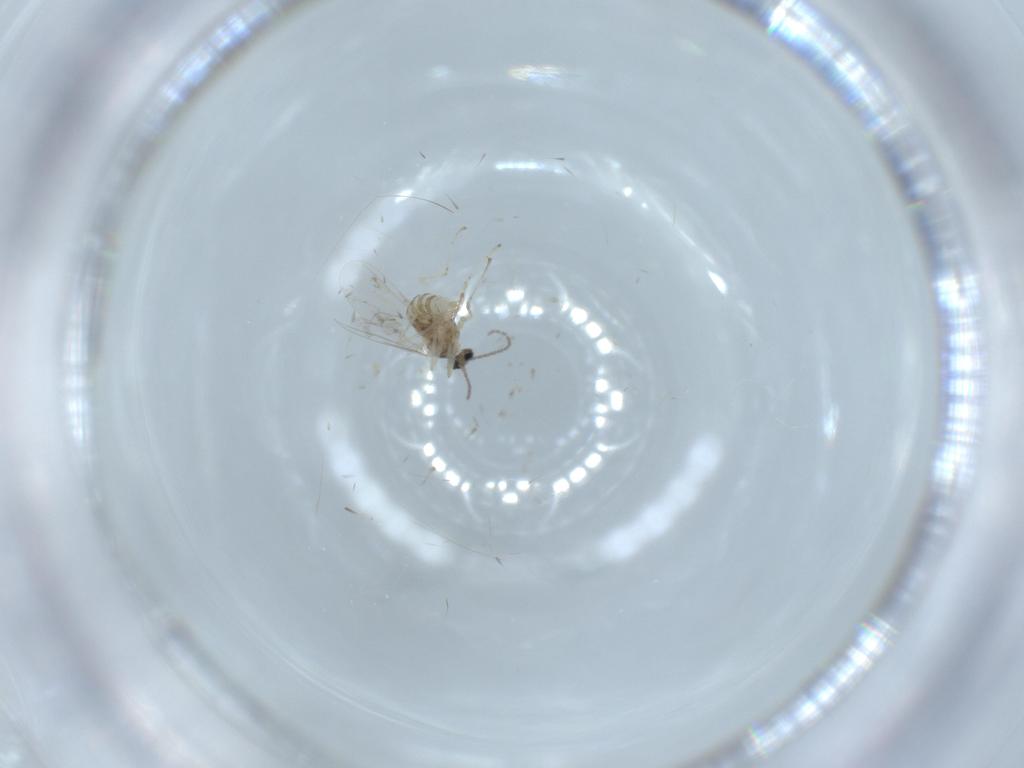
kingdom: Animalia
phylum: Arthropoda
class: Insecta
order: Diptera
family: Cecidomyiidae
